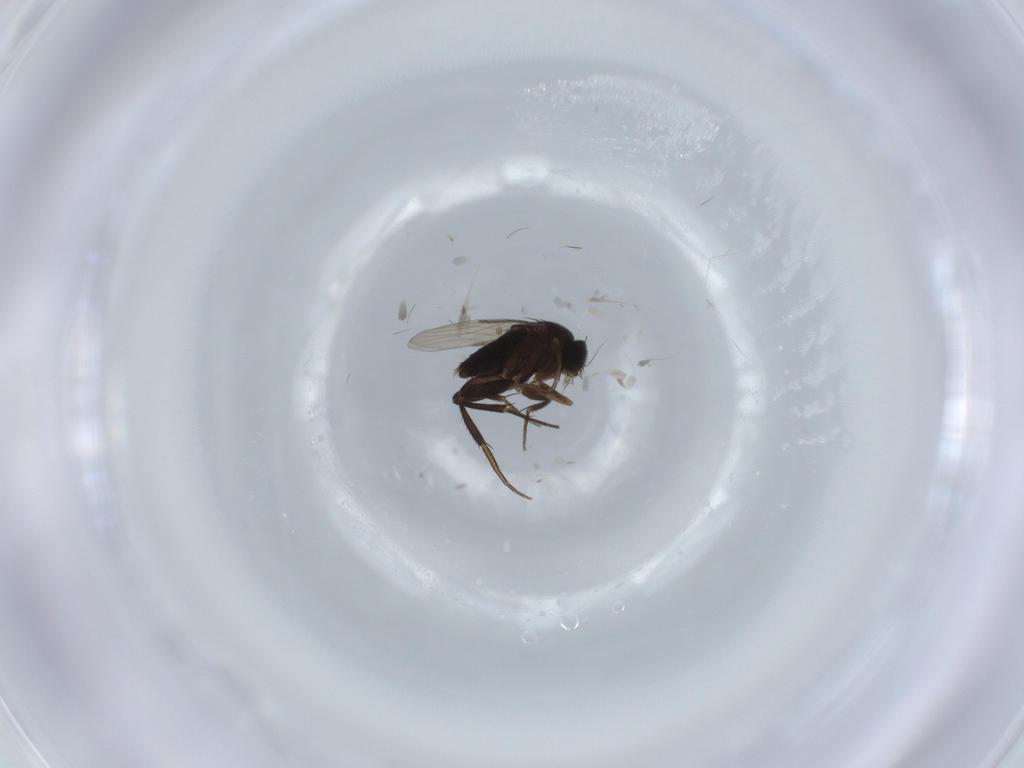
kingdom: Animalia
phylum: Arthropoda
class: Insecta
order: Diptera
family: Phoridae
